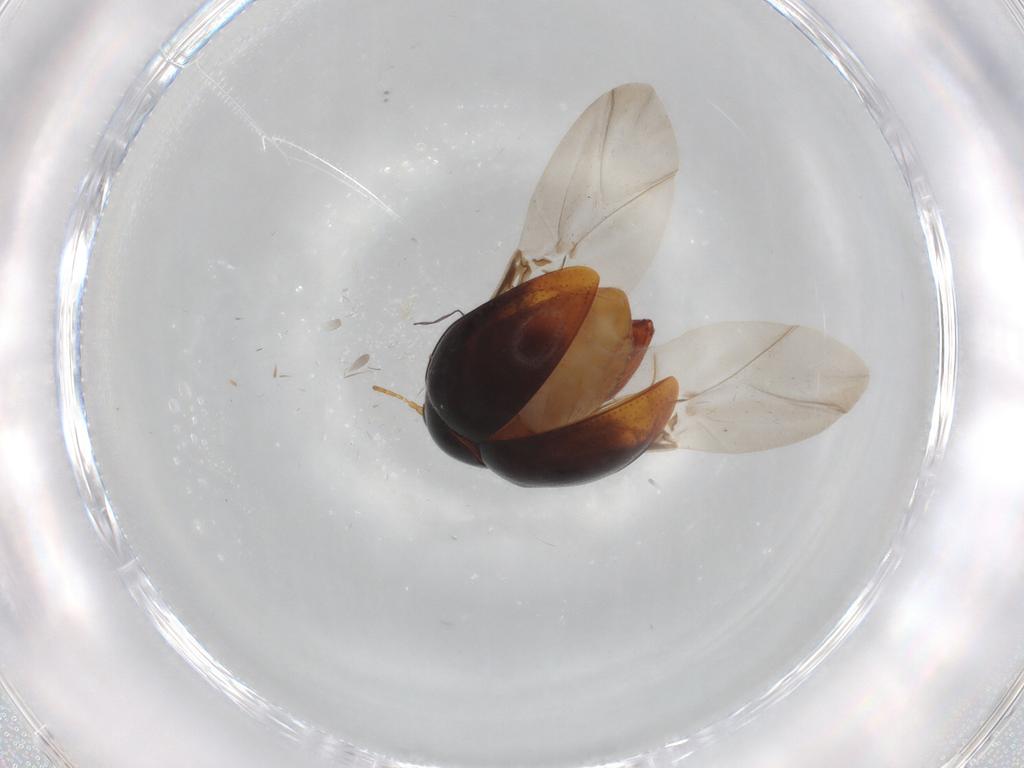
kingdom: Animalia
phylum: Arthropoda
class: Insecta
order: Coleoptera
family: Chrysomelidae
